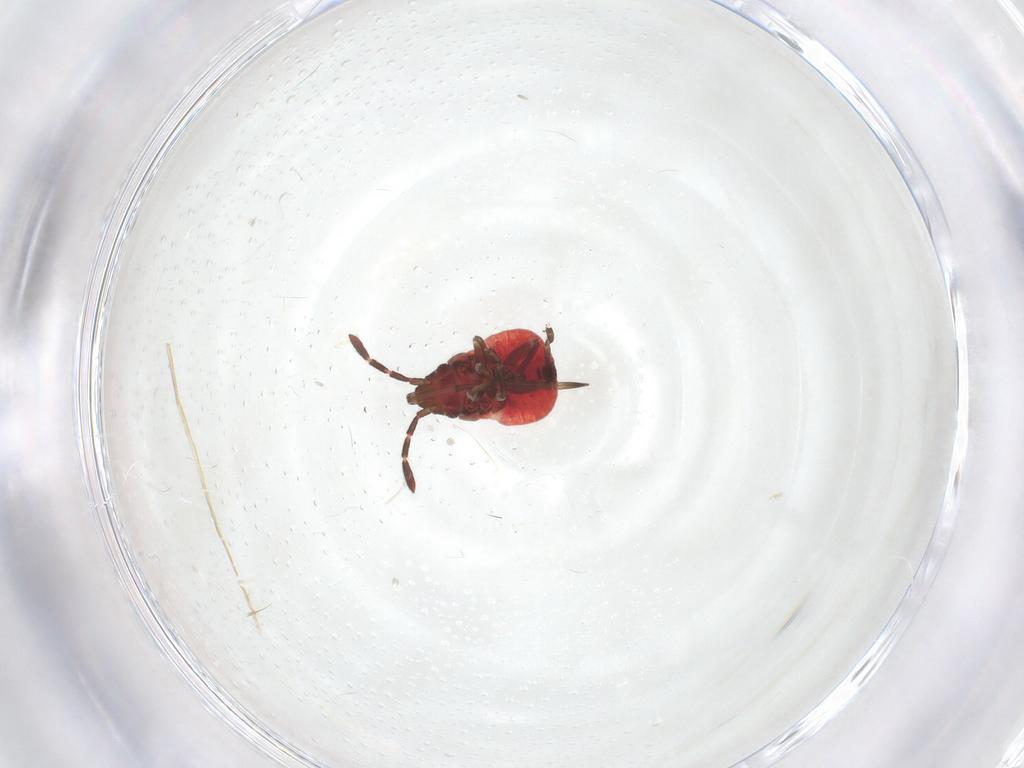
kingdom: Animalia
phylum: Arthropoda
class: Insecta
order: Hemiptera
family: Rhyparochromidae
